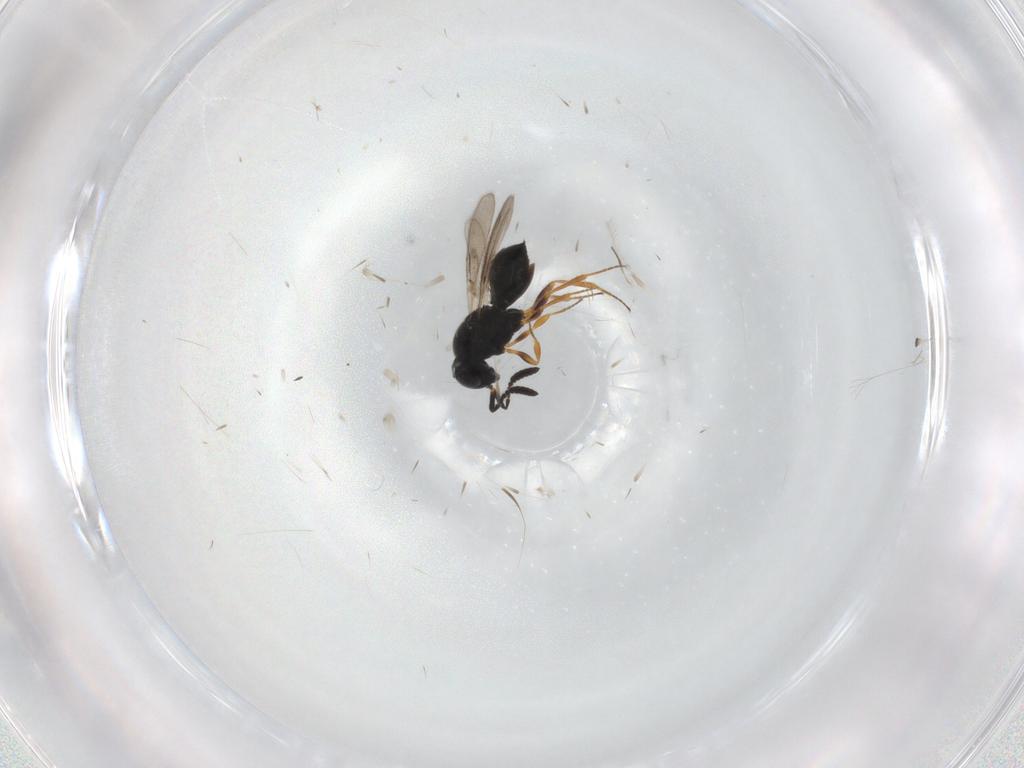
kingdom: Animalia
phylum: Arthropoda
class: Insecta
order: Hymenoptera
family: Scelionidae
